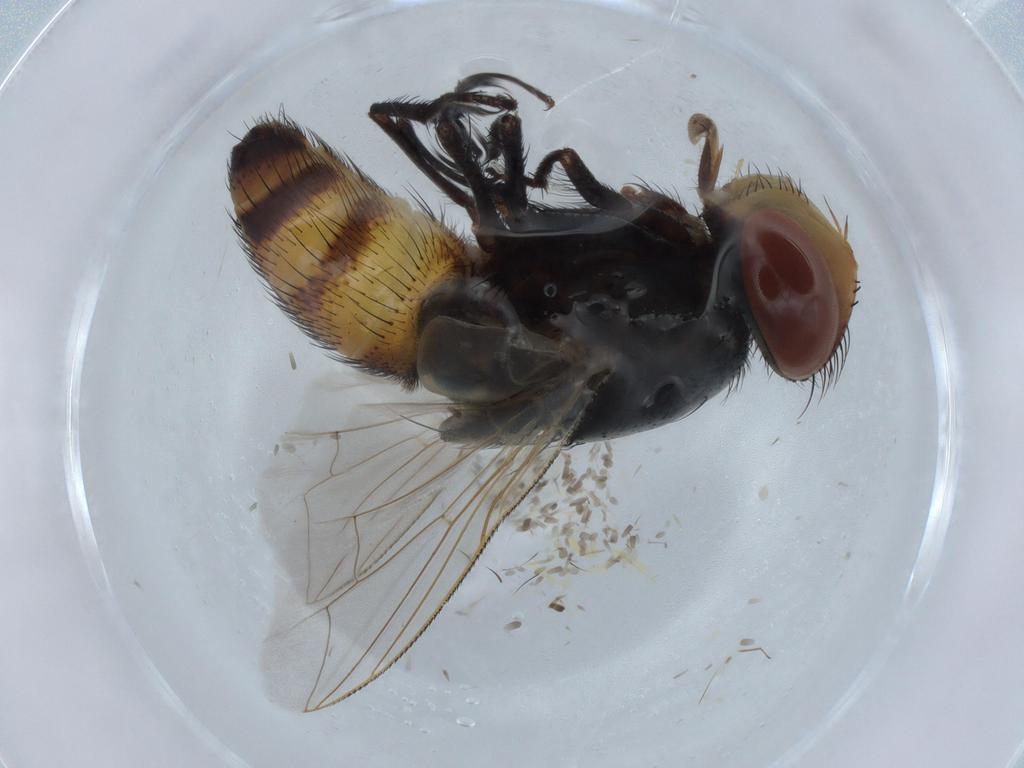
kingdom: Animalia
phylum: Arthropoda
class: Insecta
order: Diptera
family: Sarcophagidae
